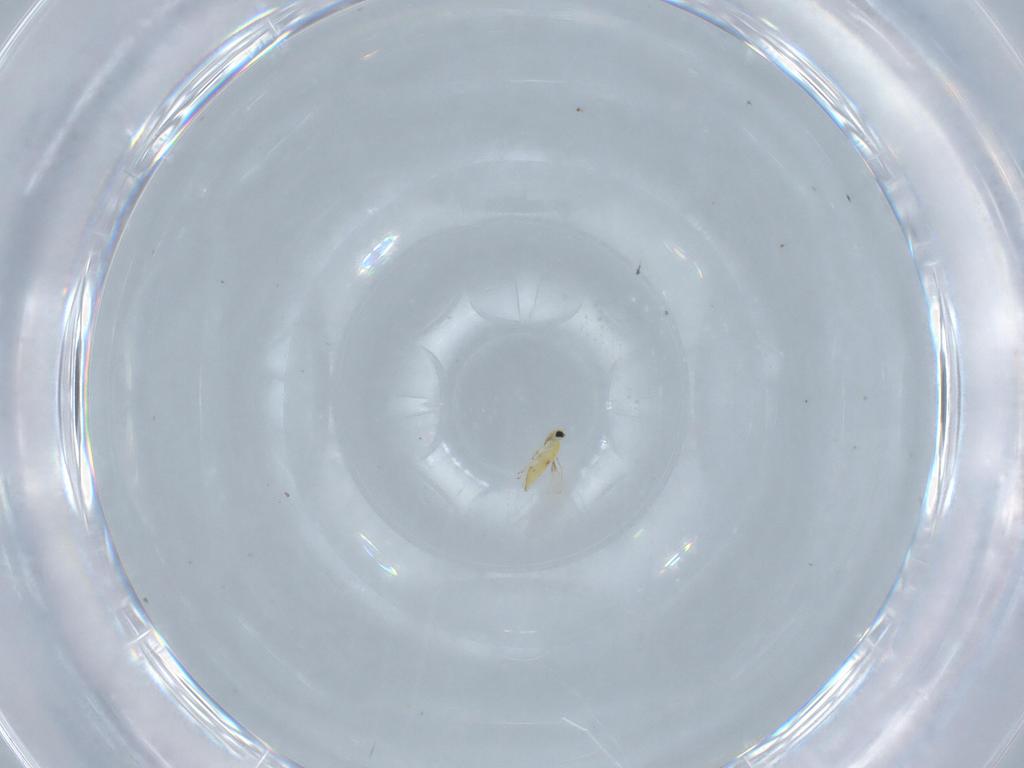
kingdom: Animalia
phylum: Arthropoda
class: Insecta
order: Hymenoptera
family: Trichogrammatidae
